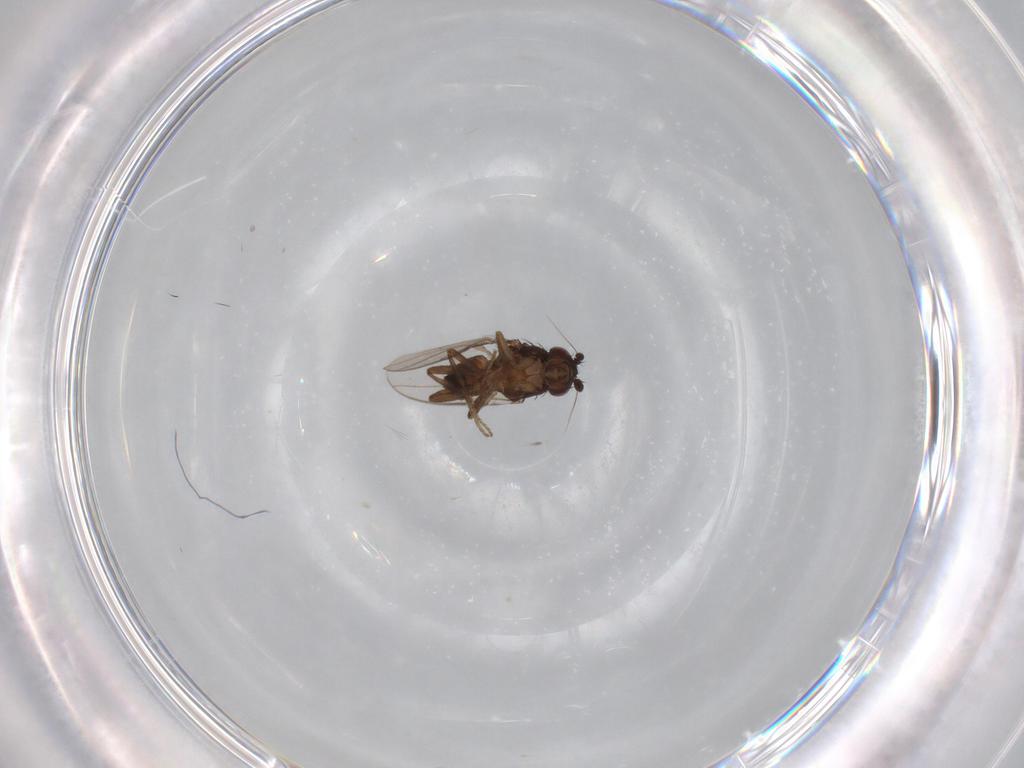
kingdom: Animalia
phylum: Arthropoda
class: Insecta
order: Diptera
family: Sphaeroceridae
